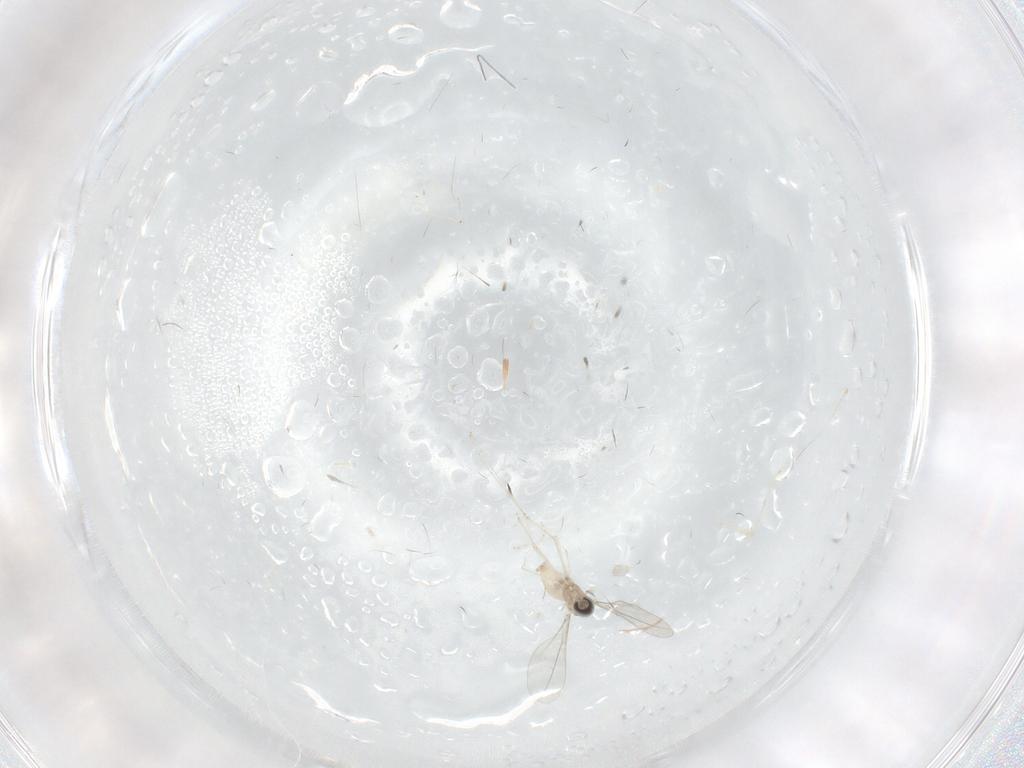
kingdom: Animalia
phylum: Arthropoda
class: Insecta
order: Diptera
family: Cecidomyiidae
